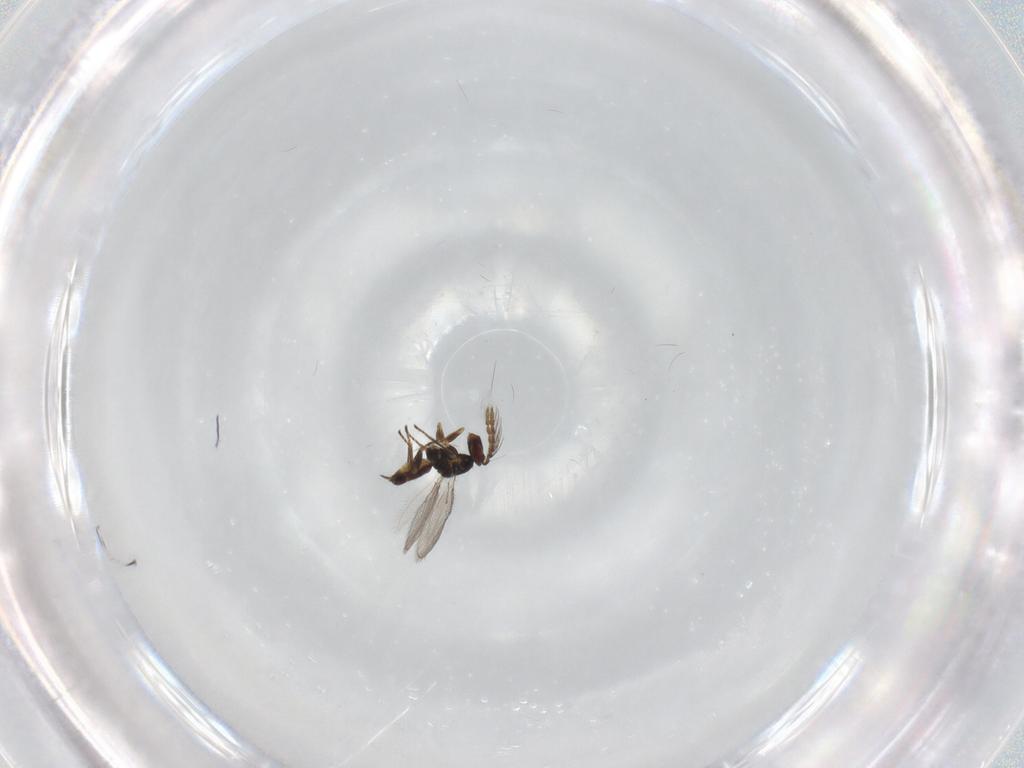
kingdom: Animalia
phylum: Arthropoda
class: Insecta
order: Hymenoptera
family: Eulophidae
